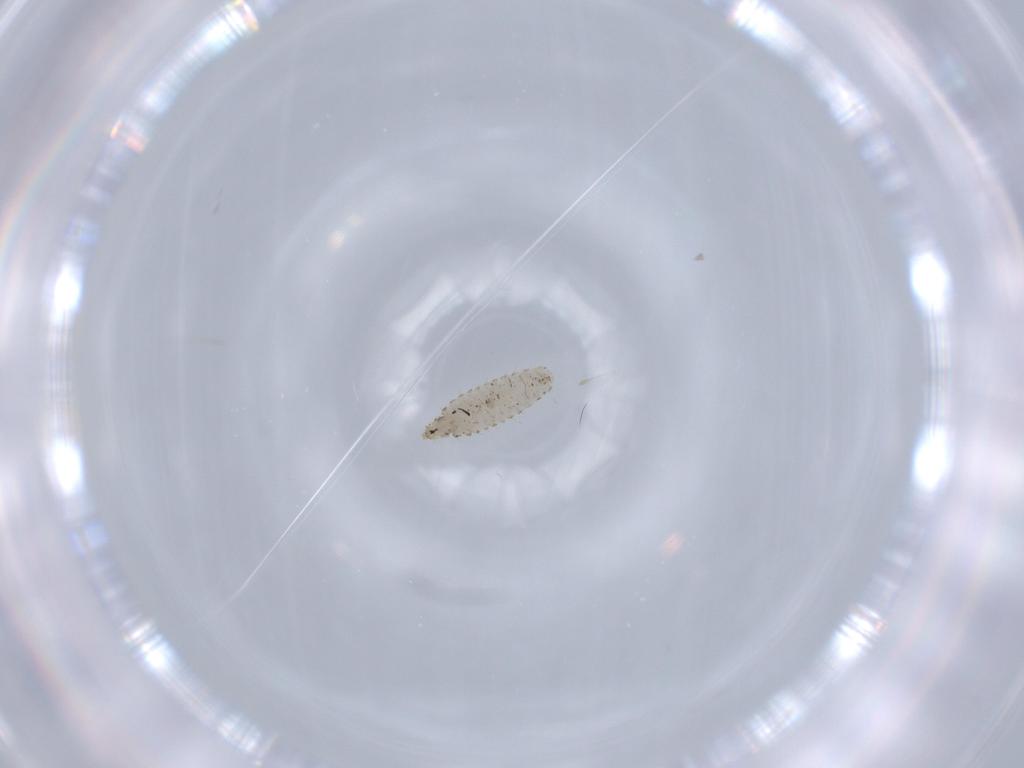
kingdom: Animalia
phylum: Arthropoda
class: Insecta
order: Diptera
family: Stratiomyidae
